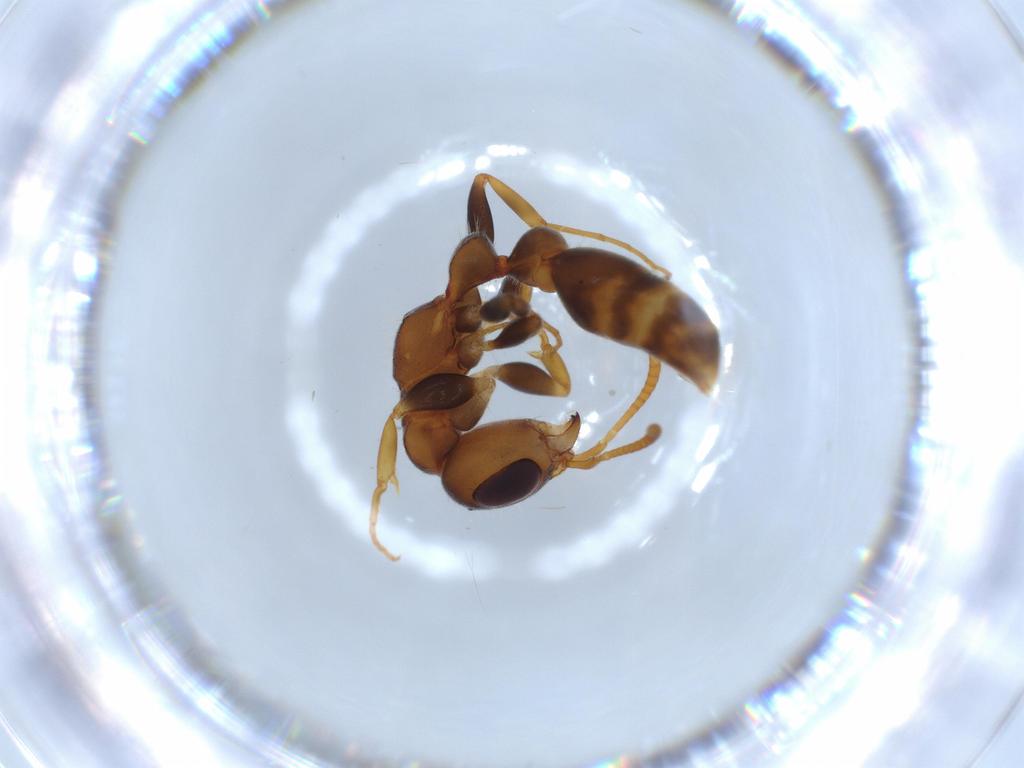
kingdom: Animalia
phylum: Arthropoda
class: Insecta
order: Hymenoptera
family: Formicidae
